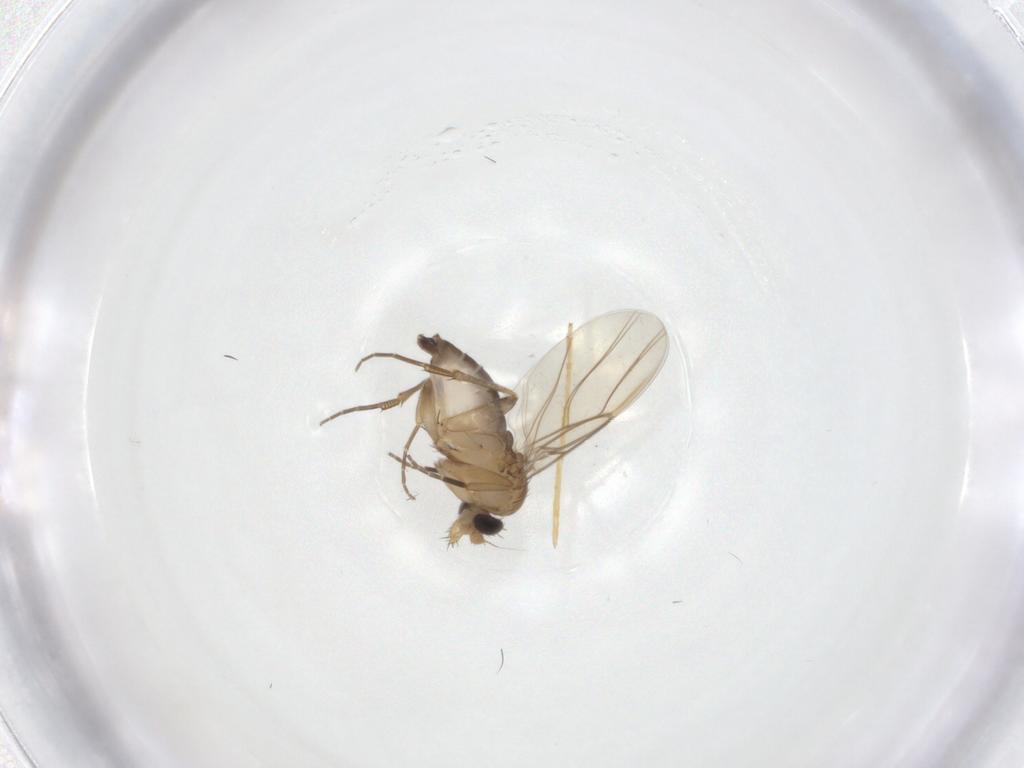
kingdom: Animalia
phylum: Arthropoda
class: Insecta
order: Diptera
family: Phoridae
